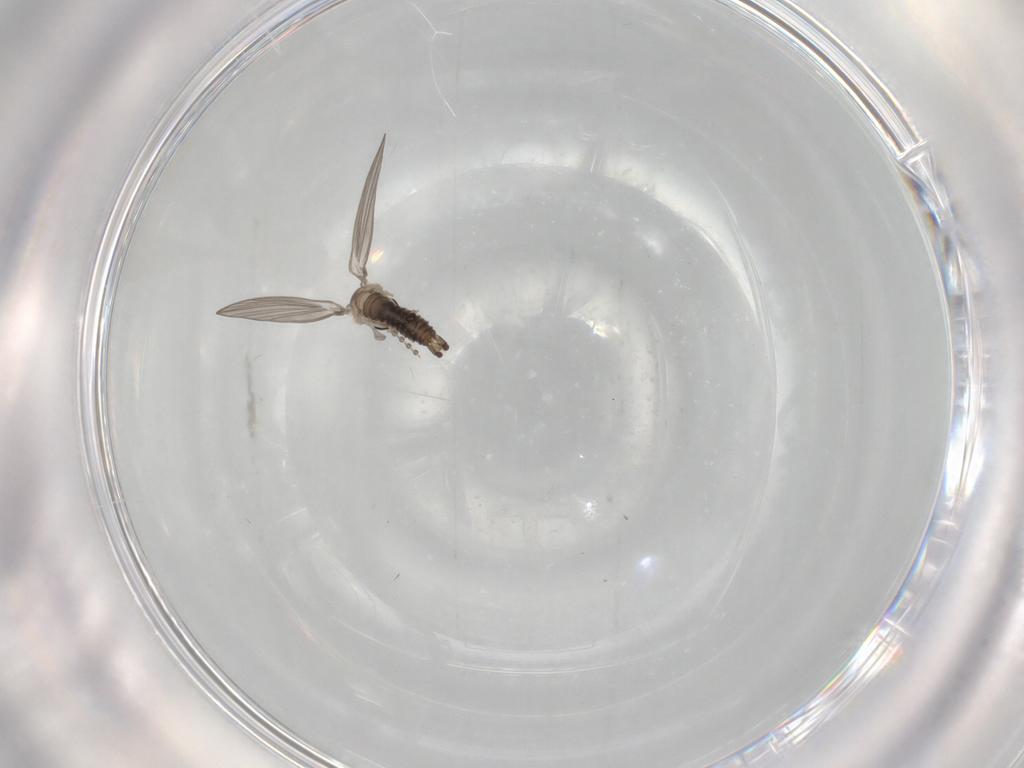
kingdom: Animalia
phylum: Arthropoda
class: Insecta
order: Diptera
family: Psychodidae
